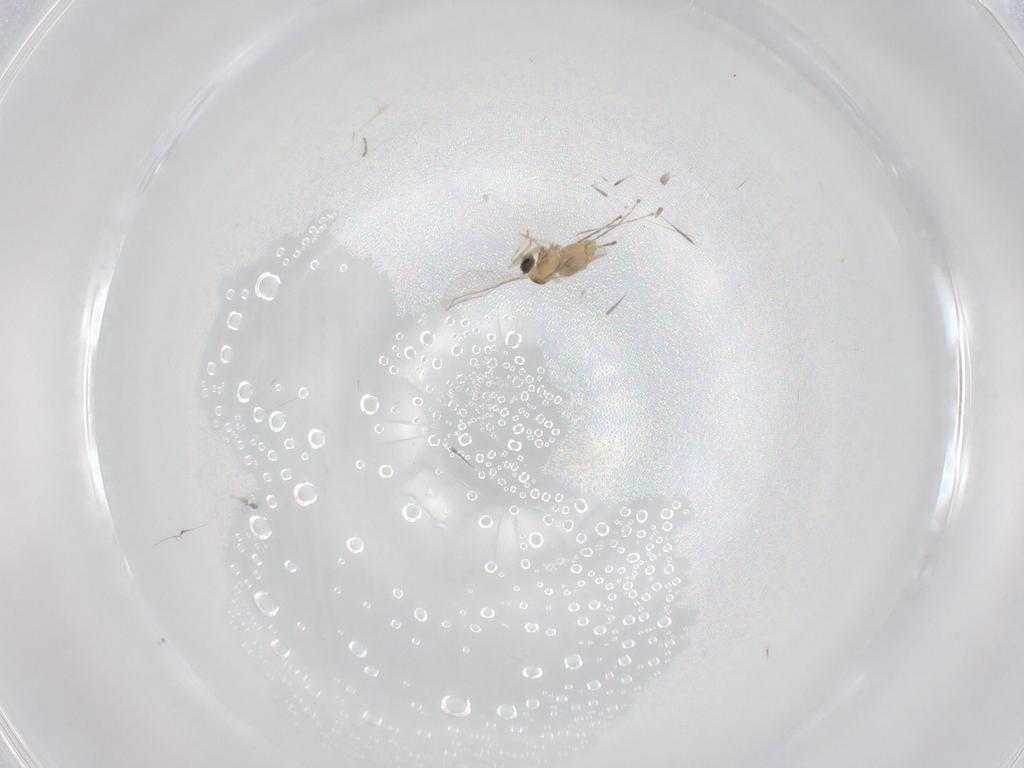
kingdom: Animalia
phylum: Arthropoda
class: Insecta
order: Diptera
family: Cecidomyiidae
